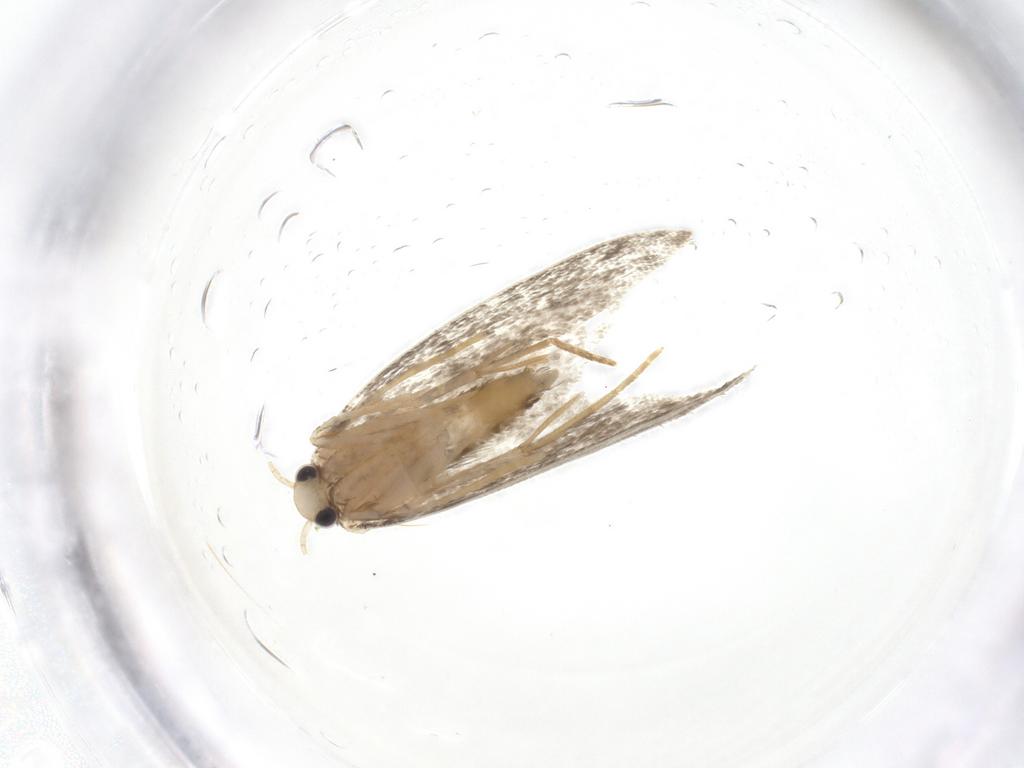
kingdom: Animalia
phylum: Arthropoda
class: Insecta
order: Lepidoptera
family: Psychidae
